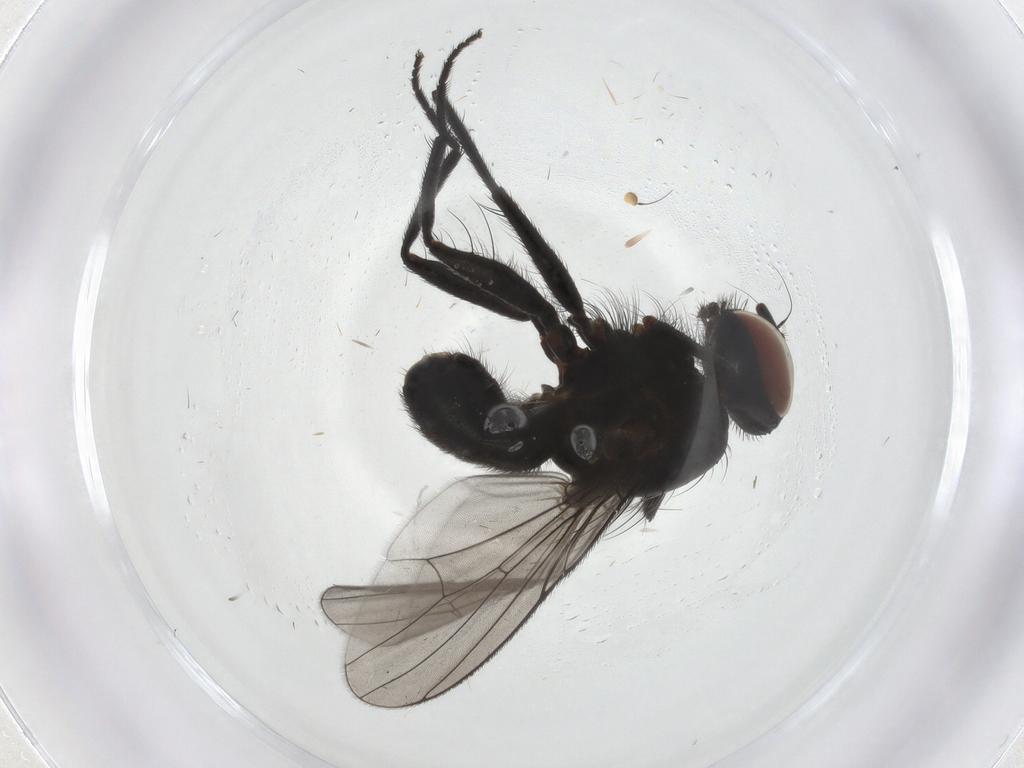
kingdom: Animalia
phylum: Arthropoda
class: Insecta
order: Diptera
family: Muscidae
